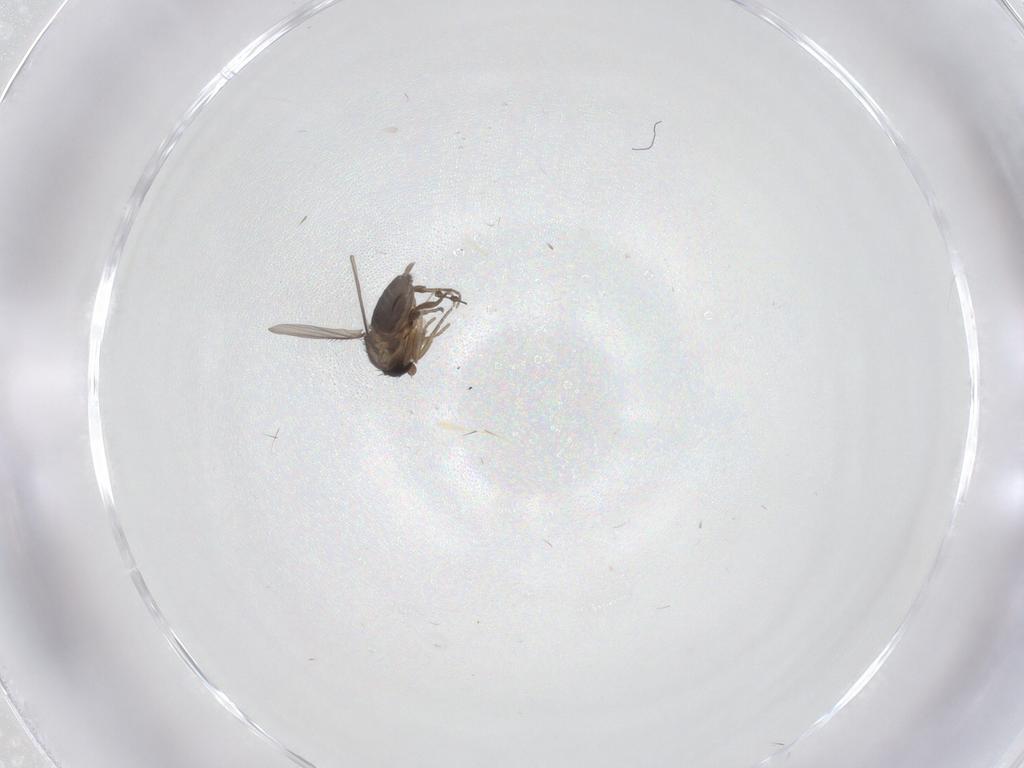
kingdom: Animalia
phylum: Arthropoda
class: Insecta
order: Diptera
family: Phoridae
